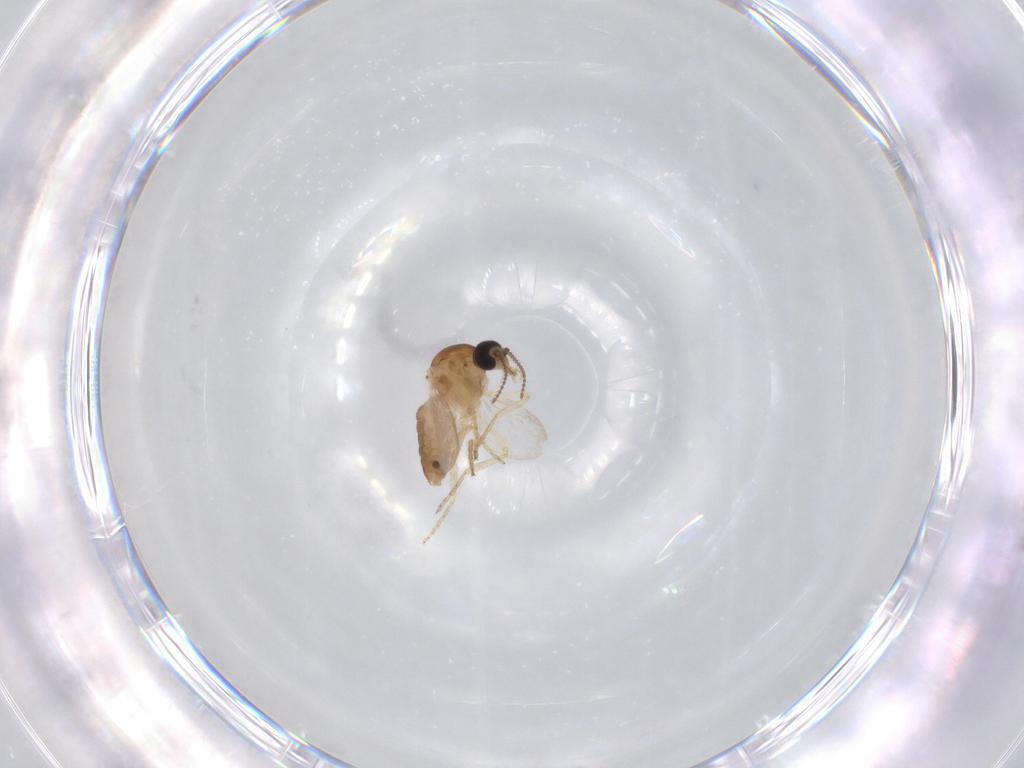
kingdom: Animalia
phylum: Arthropoda
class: Insecta
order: Diptera
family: Ceratopogonidae
